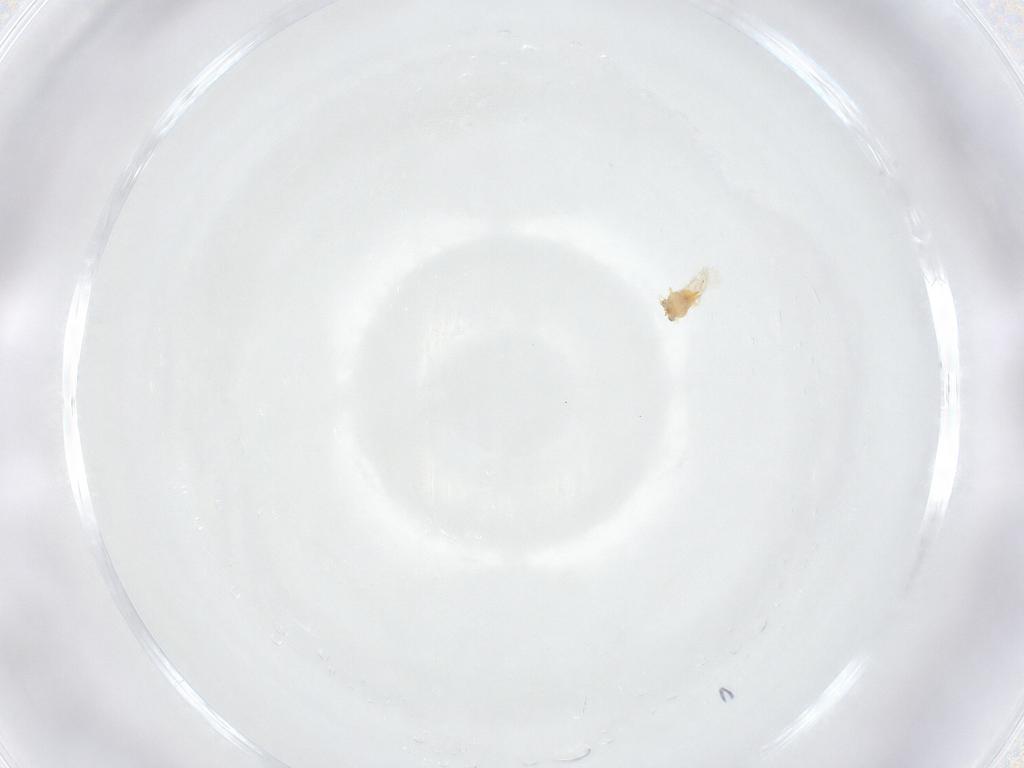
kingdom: Animalia
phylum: Arthropoda
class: Insecta
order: Hymenoptera
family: Aphelinidae
